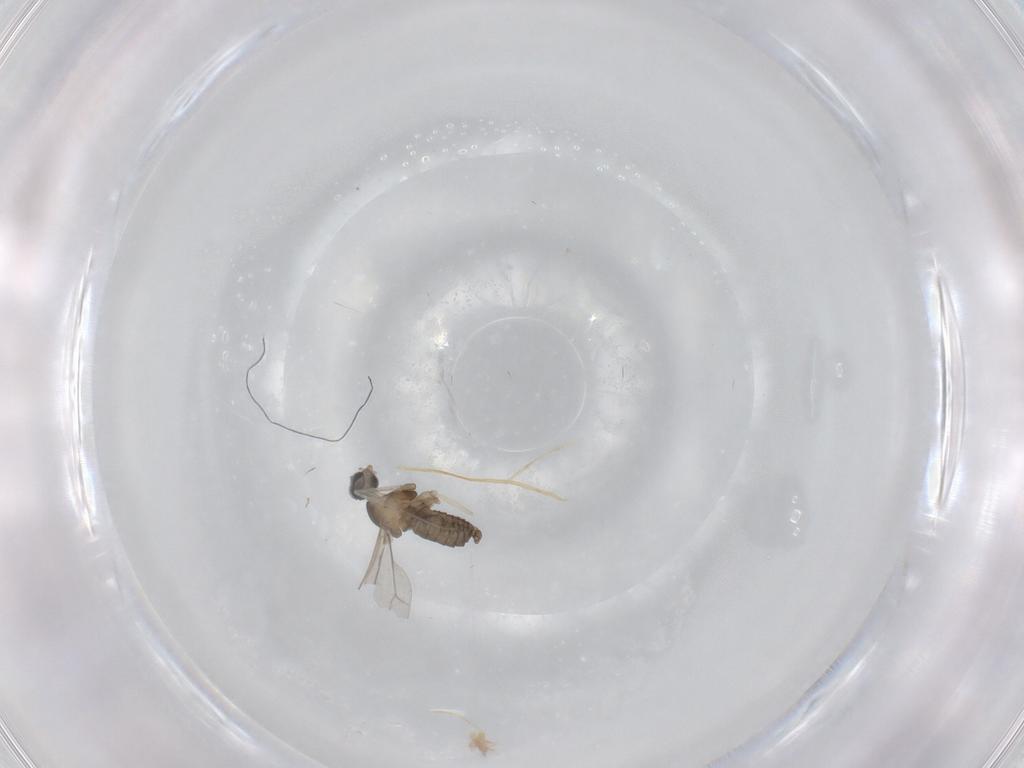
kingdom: Animalia
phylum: Arthropoda
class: Insecta
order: Diptera
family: Cecidomyiidae
